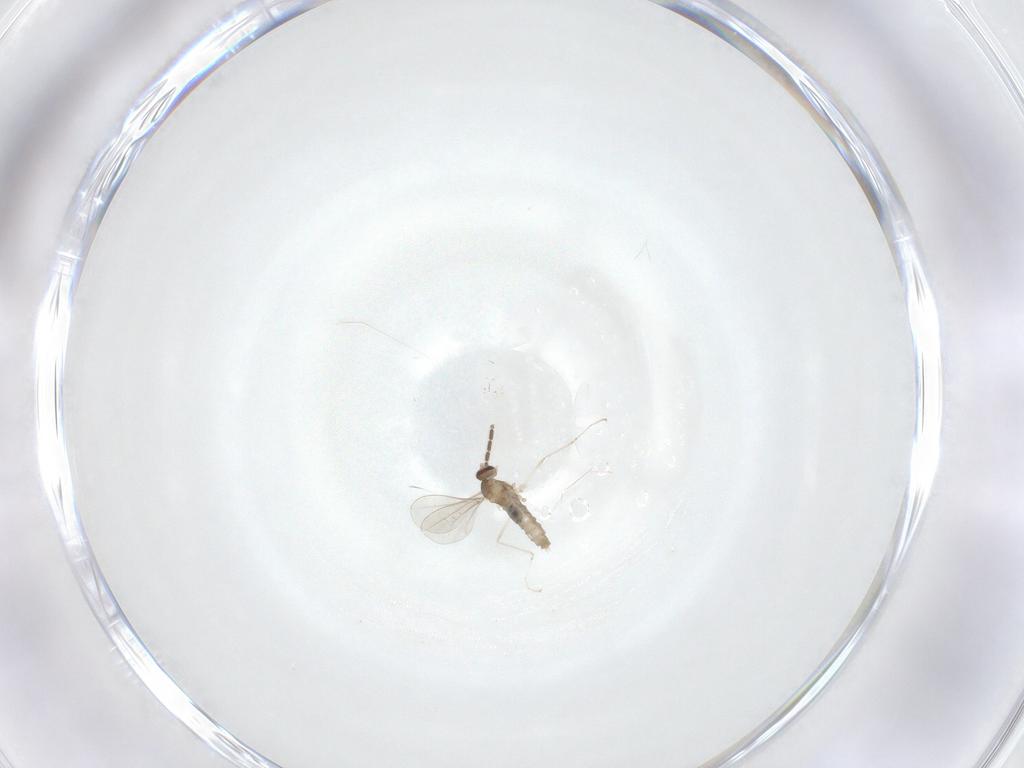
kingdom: Animalia
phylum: Arthropoda
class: Insecta
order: Diptera
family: Cecidomyiidae
